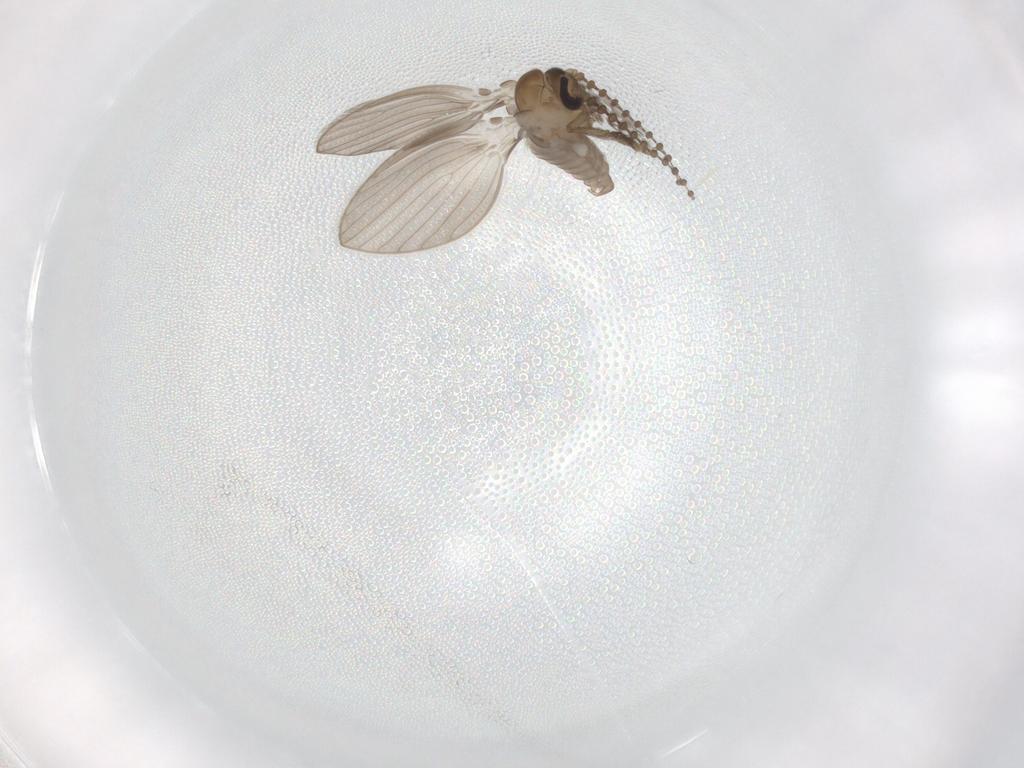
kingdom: Animalia
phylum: Arthropoda
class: Insecta
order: Diptera
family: Psychodidae
